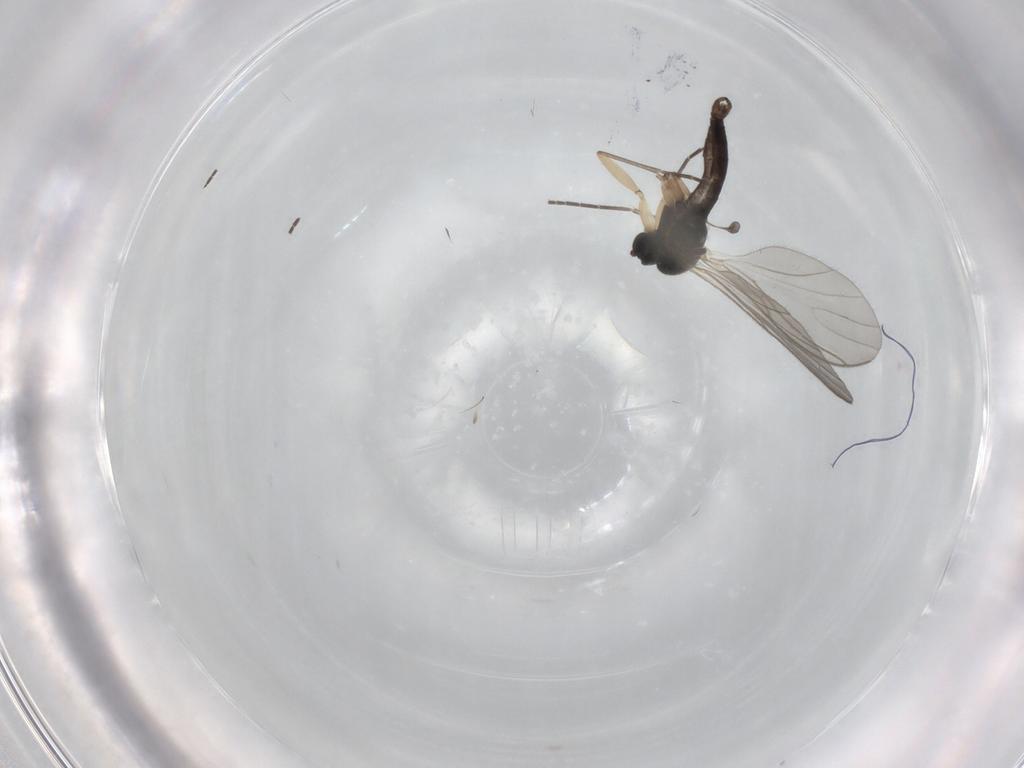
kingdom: Animalia
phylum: Arthropoda
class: Insecta
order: Diptera
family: Sciaridae
